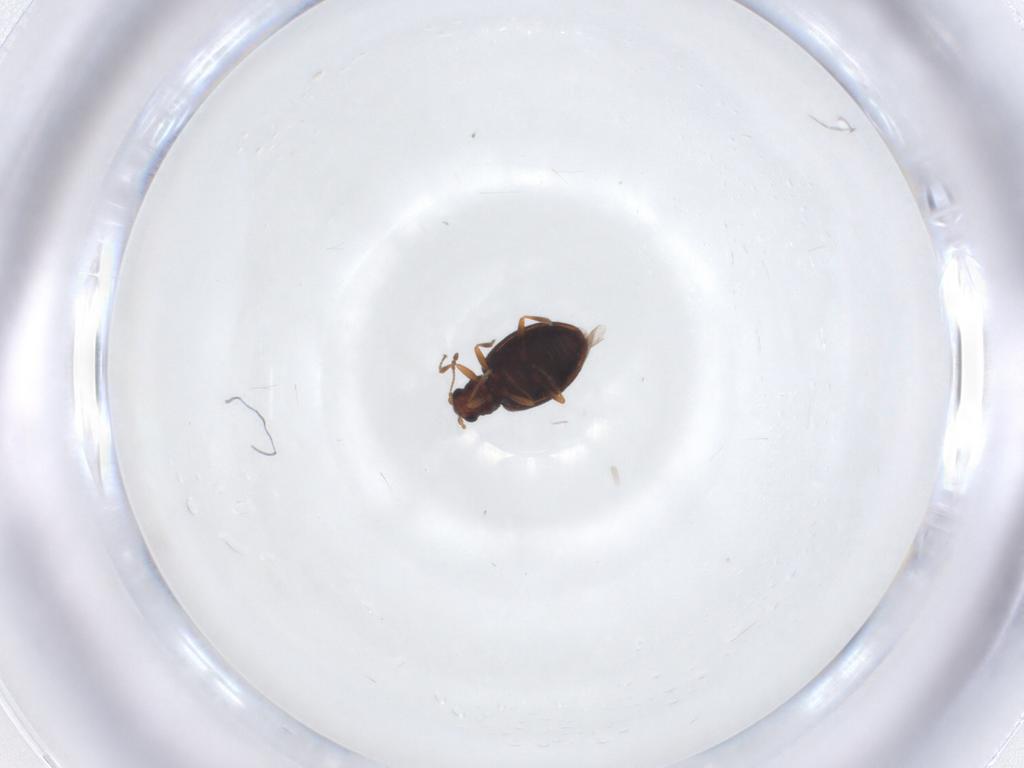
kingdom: Animalia
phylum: Arthropoda
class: Insecta
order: Coleoptera
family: Latridiidae
